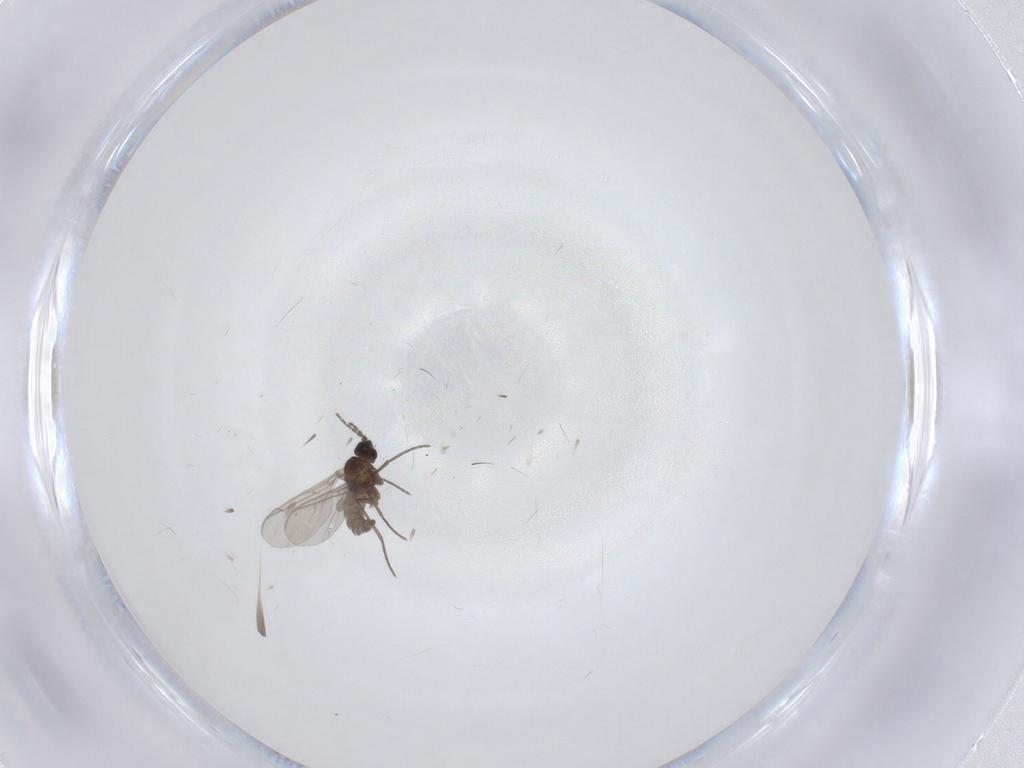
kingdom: Animalia
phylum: Arthropoda
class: Insecta
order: Diptera
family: Sciaridae
